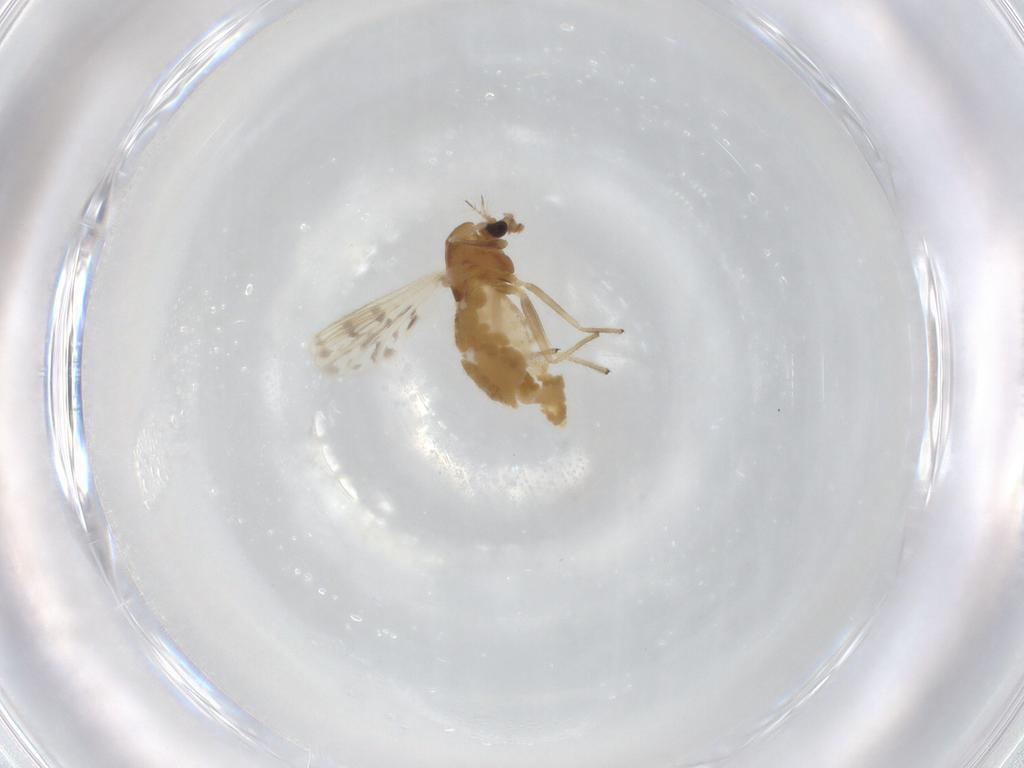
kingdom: Animalia
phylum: Arthropoda
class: Insecta
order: Diptera
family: Chironomidae
